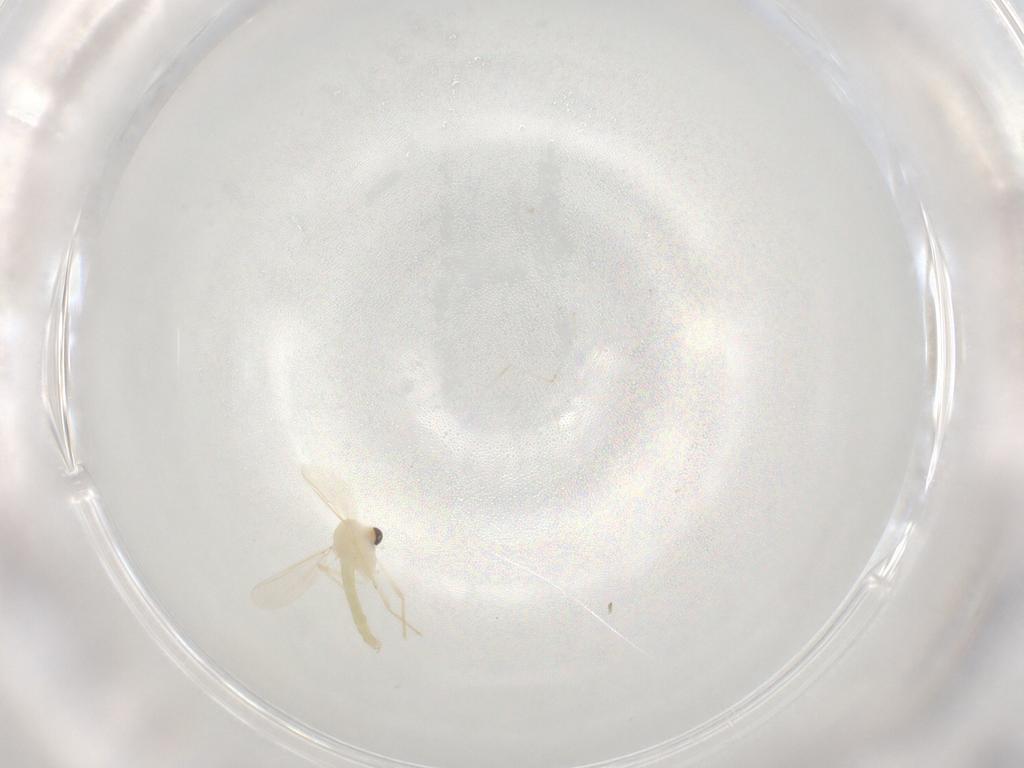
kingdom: Animalia
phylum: Arthropoda
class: Insecta
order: Diptera
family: Chironomidae
